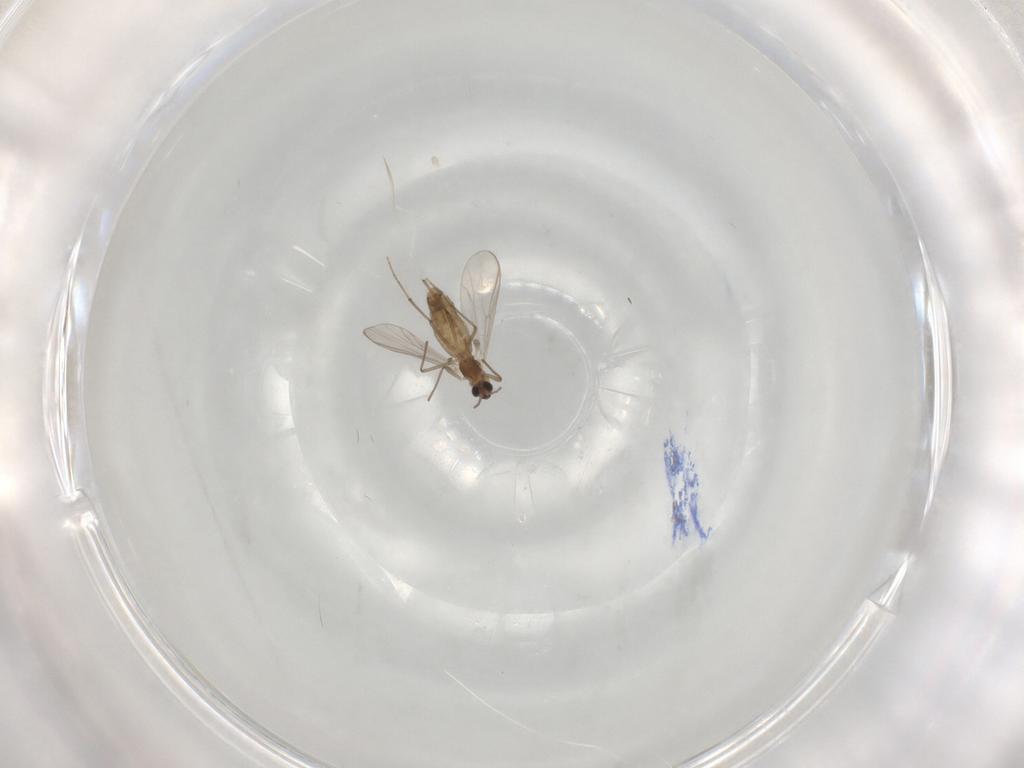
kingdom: Animalia
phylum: Arthropoda
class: Insecta
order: Diptera
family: Chironomidae
